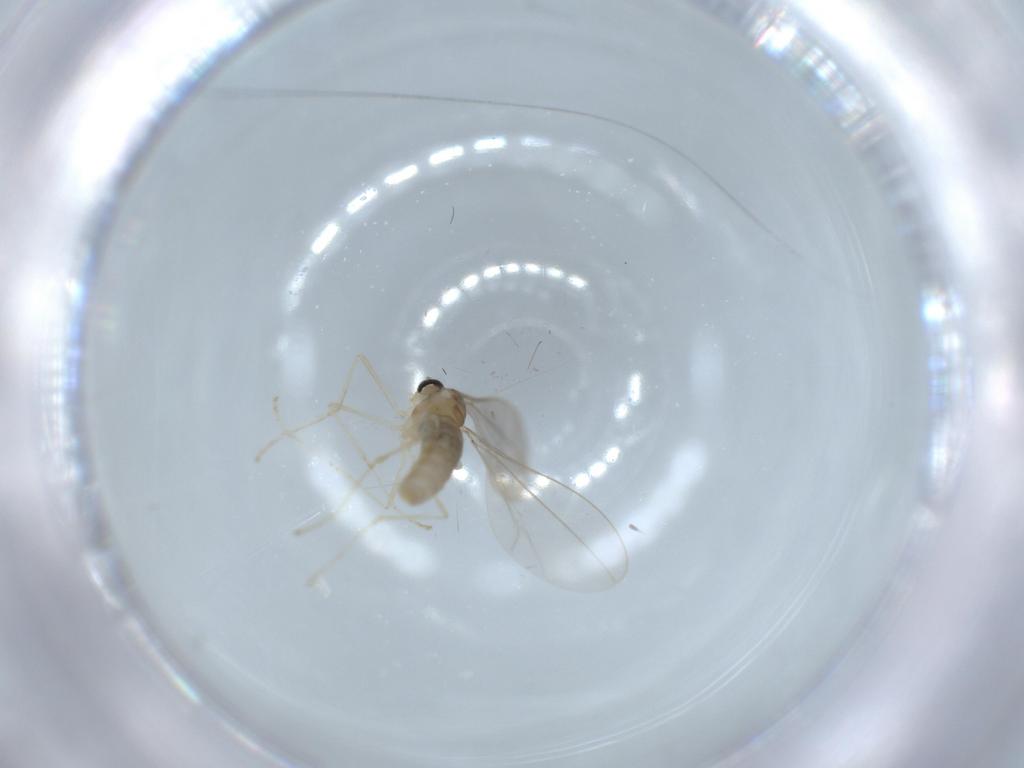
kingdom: Animalia
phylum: Arthropoda
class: Insecta
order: Diptera
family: Cecidomyiidae
